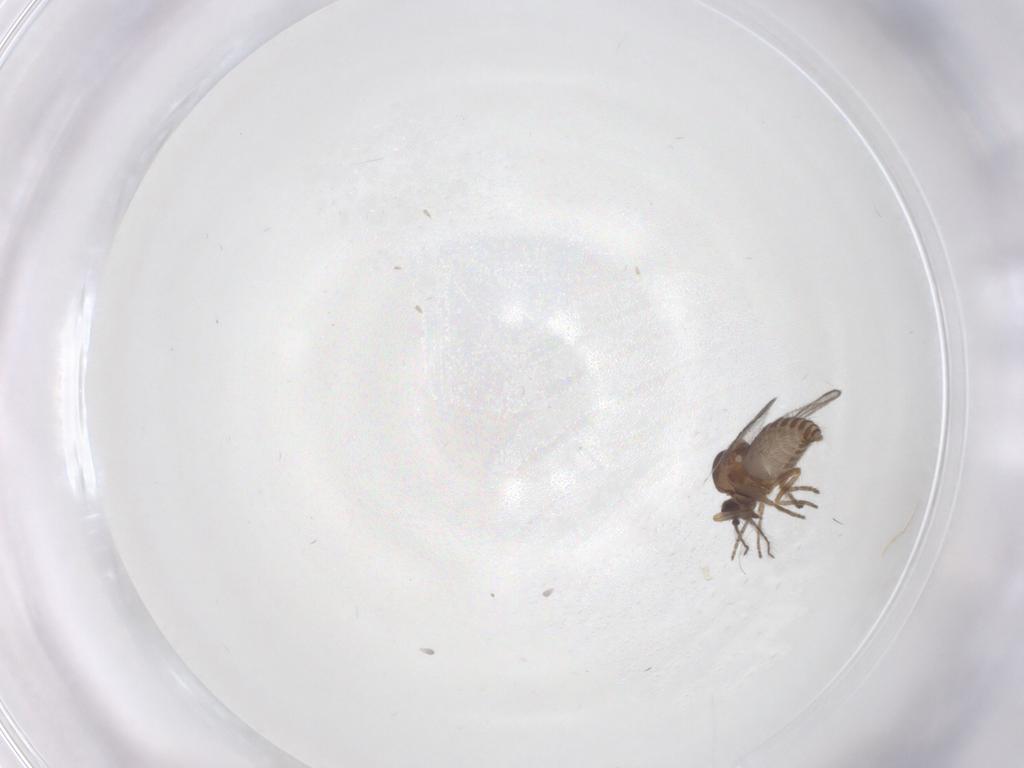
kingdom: Animalia
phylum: Arthropoda
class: Insecta
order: Diptera
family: Ceratopogonidae
